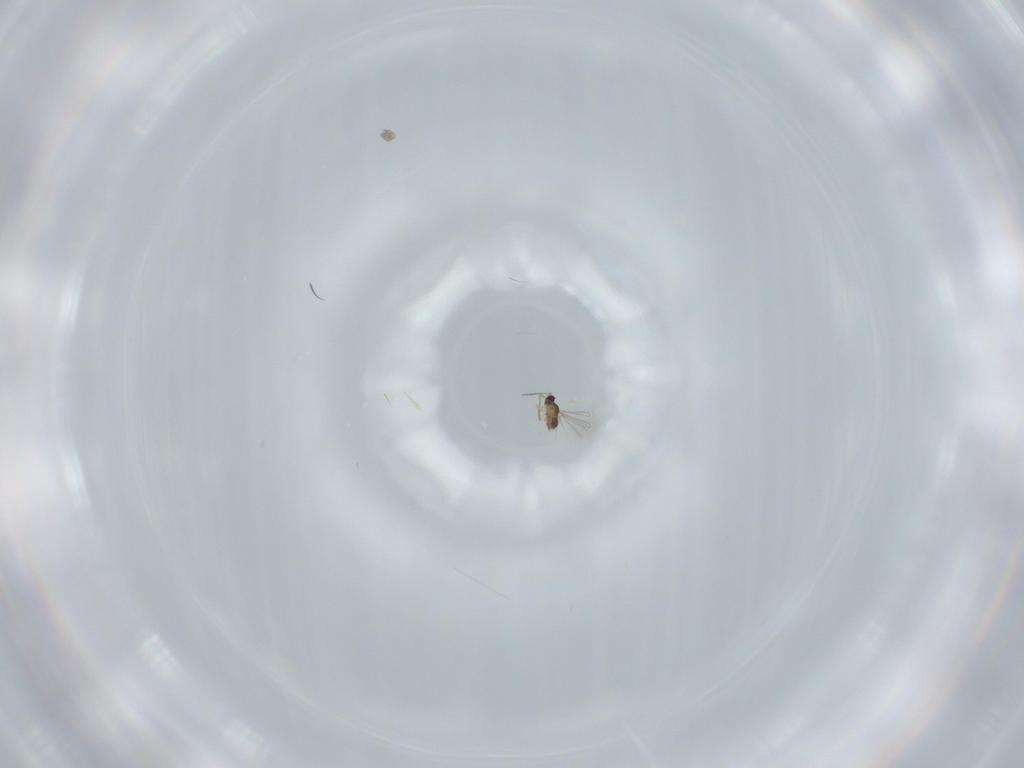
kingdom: Animalia
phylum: Arthropoda
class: Insecta
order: Hymenoptera
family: Mymaridae
